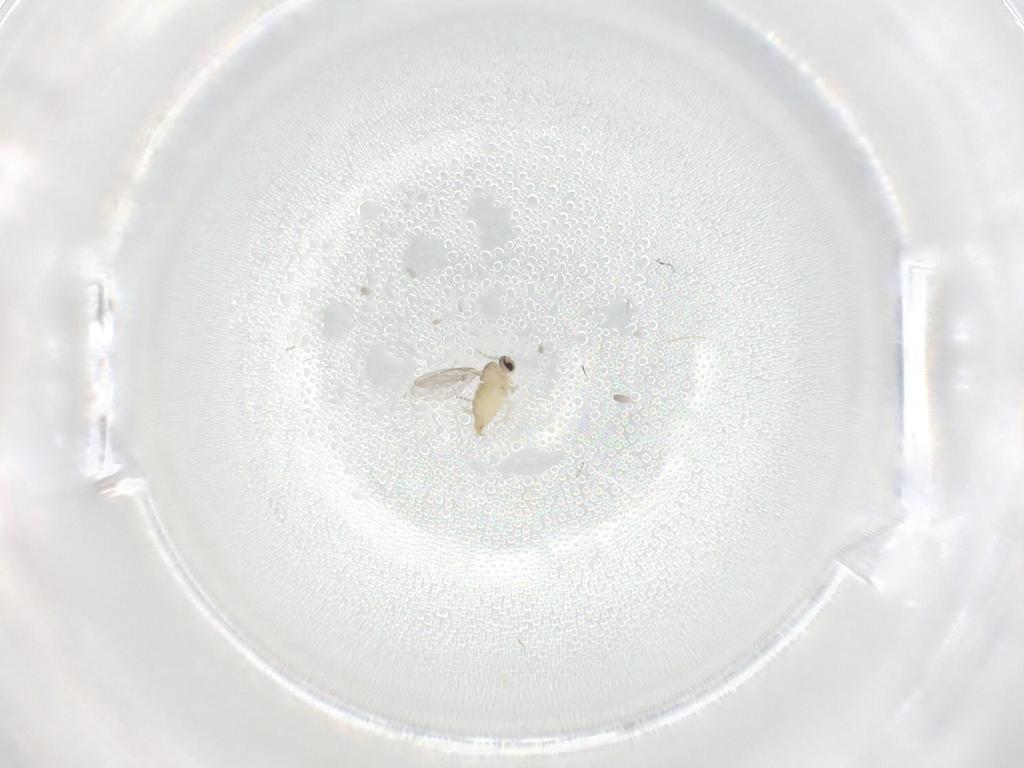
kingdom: Animalia
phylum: Arthropoda
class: Insecta
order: Diptera
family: Cecidomyiidae
